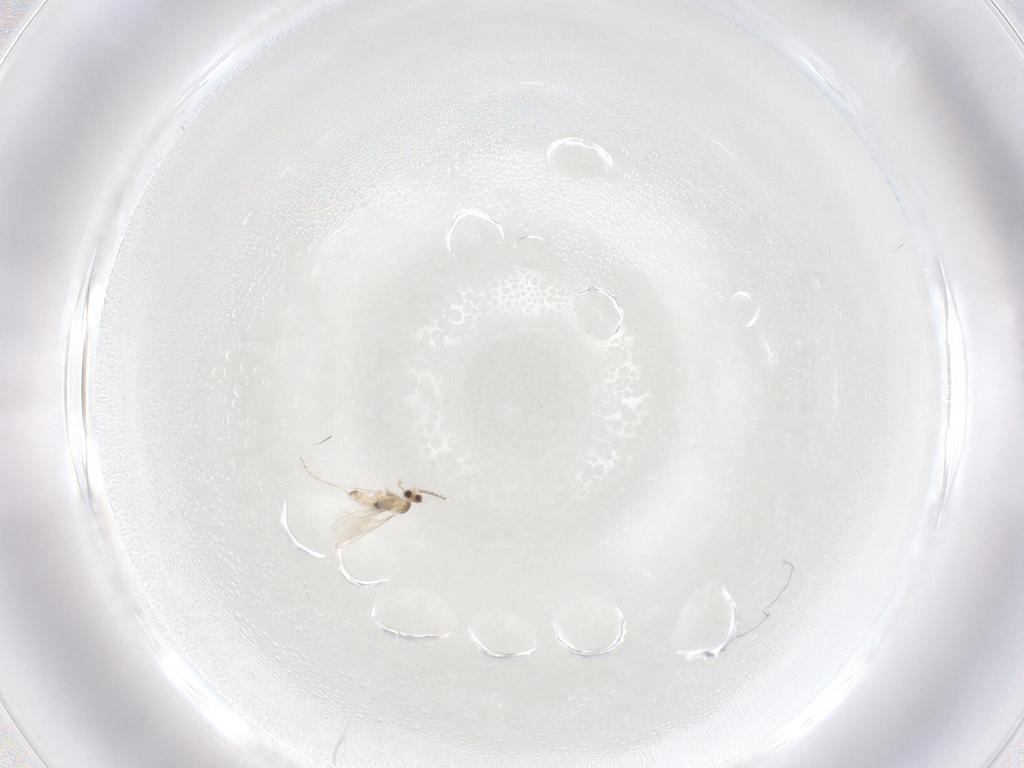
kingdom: Animalia
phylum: Arthropoda
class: Insecta
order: Diptera
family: Cecidomyiidae
